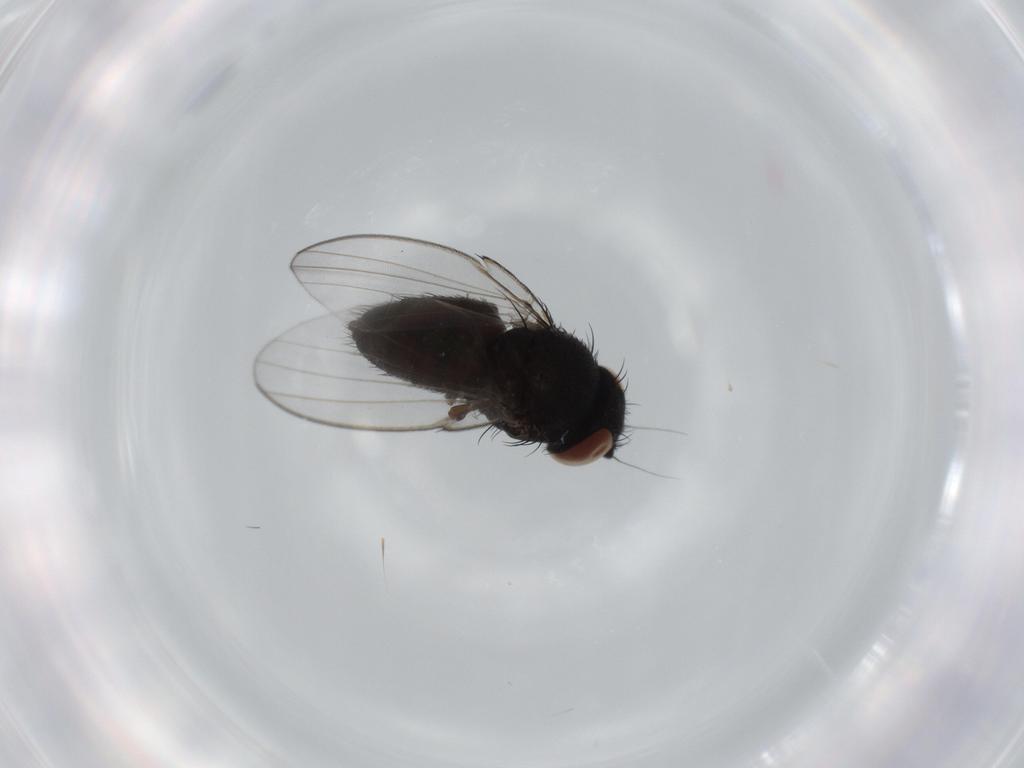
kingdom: Animalia
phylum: Arthropoda
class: Insecta
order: Diptera
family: Milichiidae
